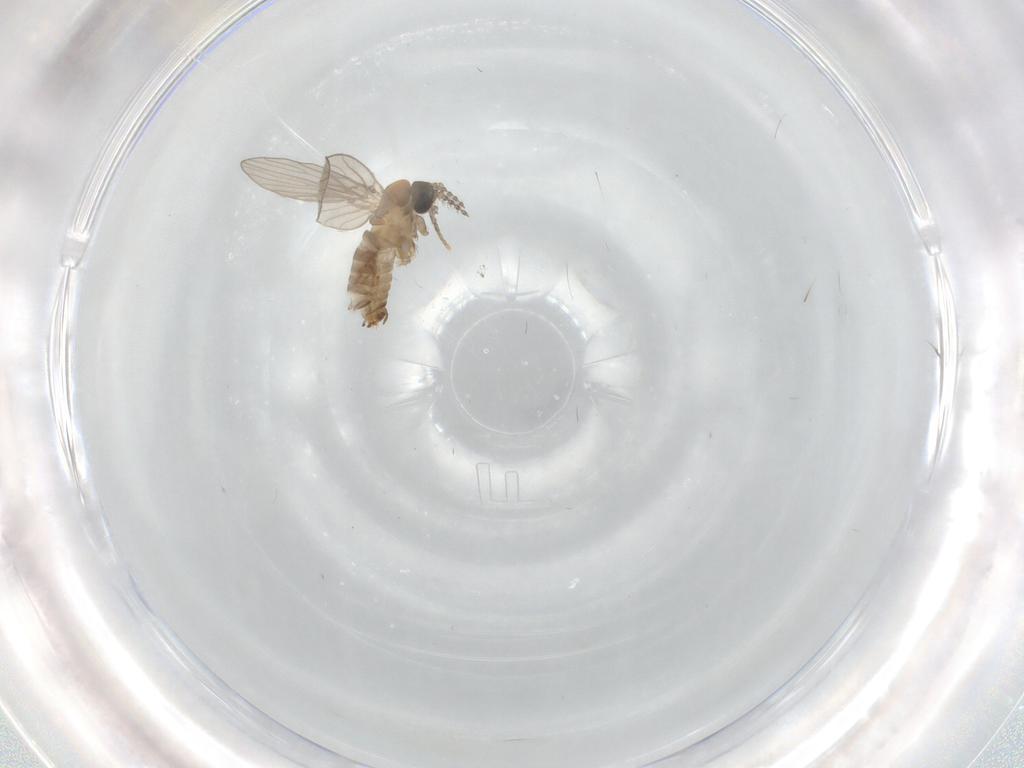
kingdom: Animalia
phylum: Arthropoda
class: Insecta
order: Diptera
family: Psychodidae
